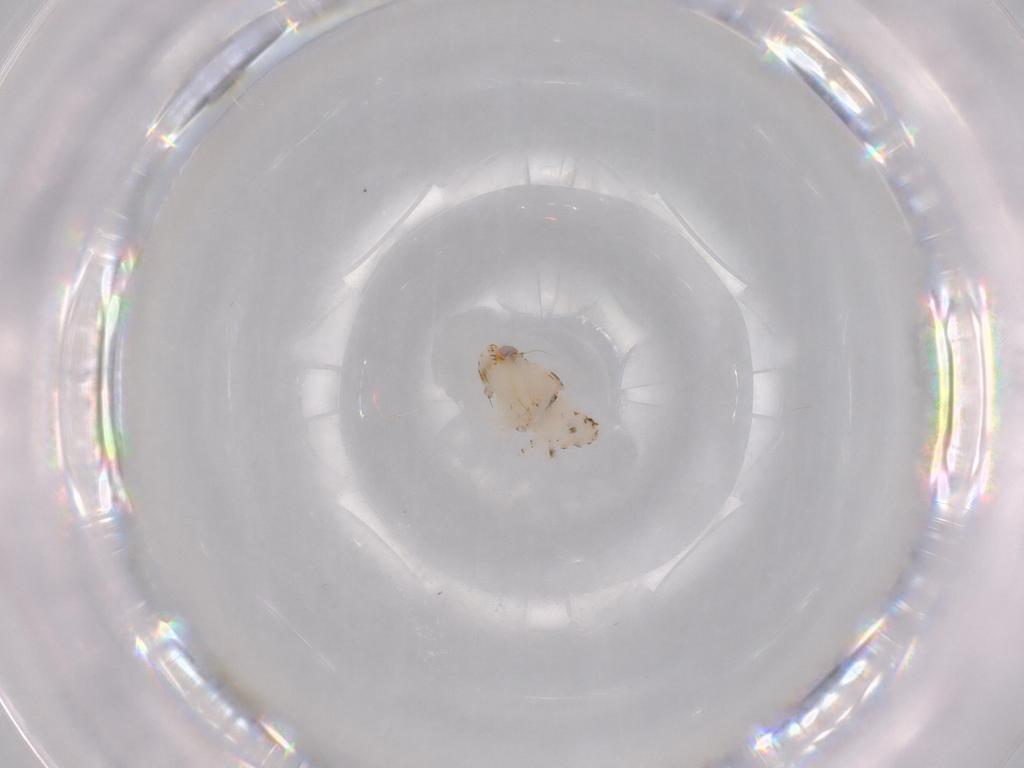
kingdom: Animalia
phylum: Arthropoda
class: Insecta
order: Hemiptera
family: Nogodinidae
